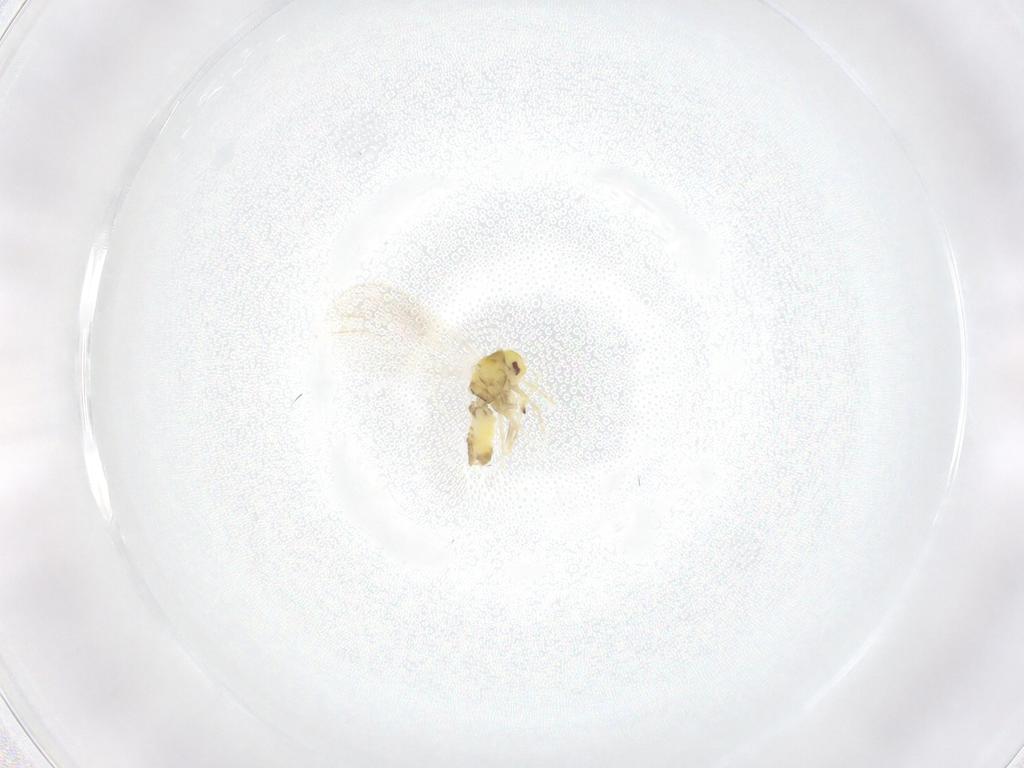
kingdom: Animalia
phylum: Arthropoda
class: Insecta
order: Hemiptera
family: Aleyrodidae
